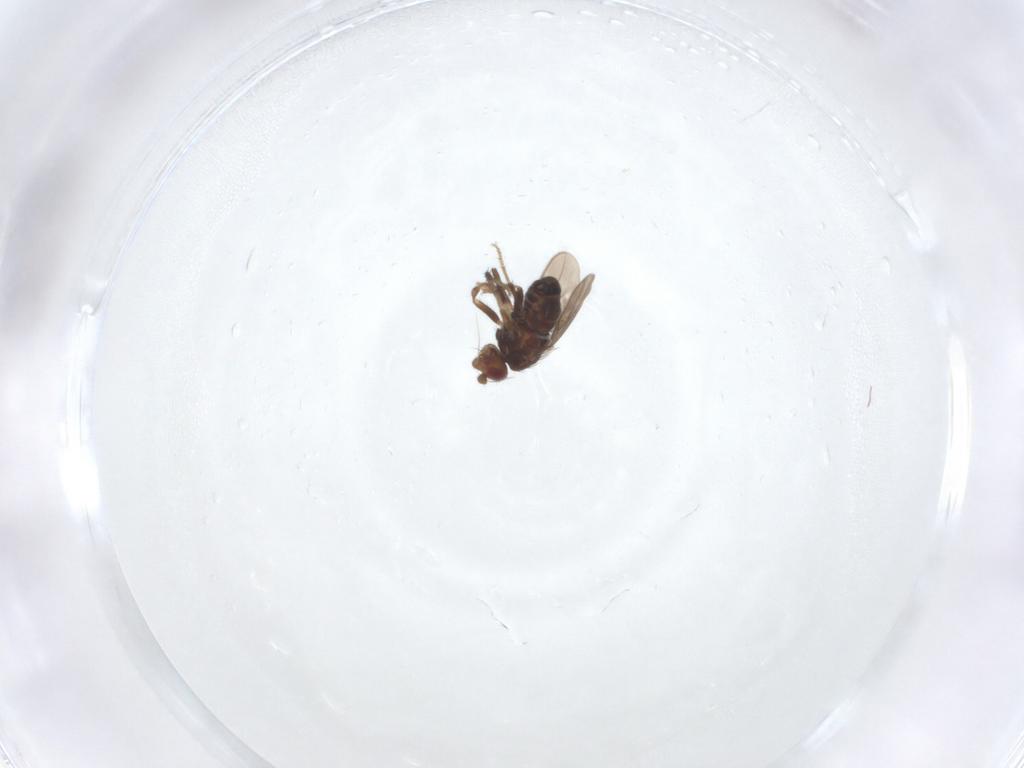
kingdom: Animalia
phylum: Arthropoda
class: Insecta
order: Diptera
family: Sphaeroceridae
